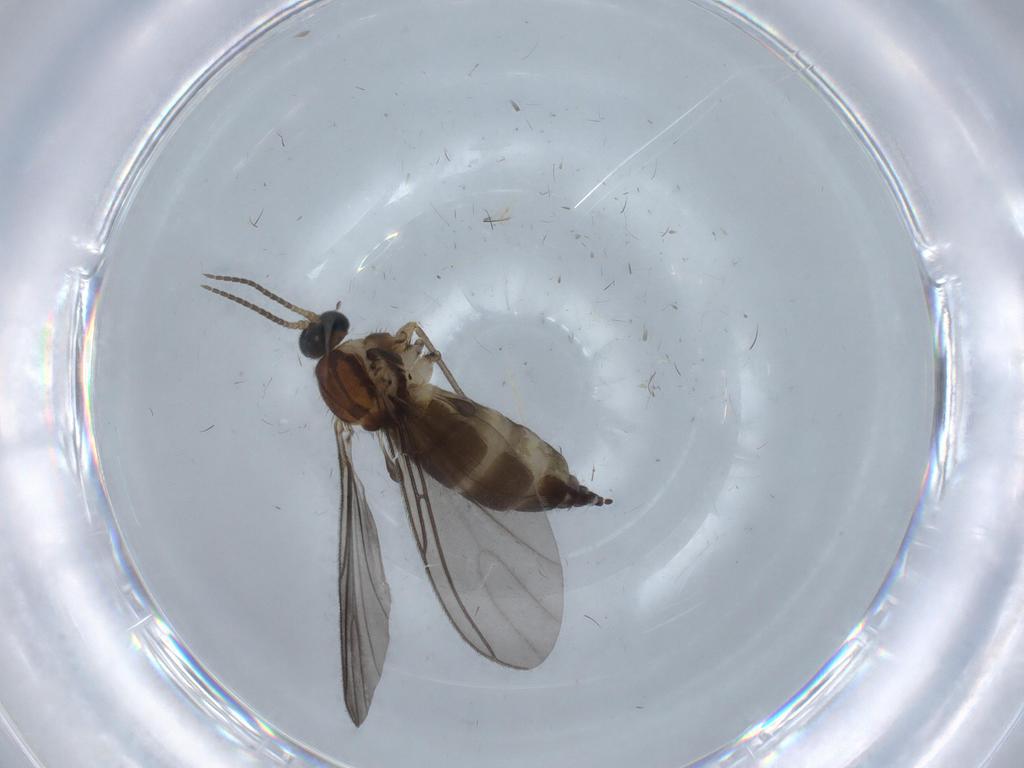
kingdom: Animalia
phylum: Arthropoda
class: Insecta
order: Diptera
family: Sciaridae
